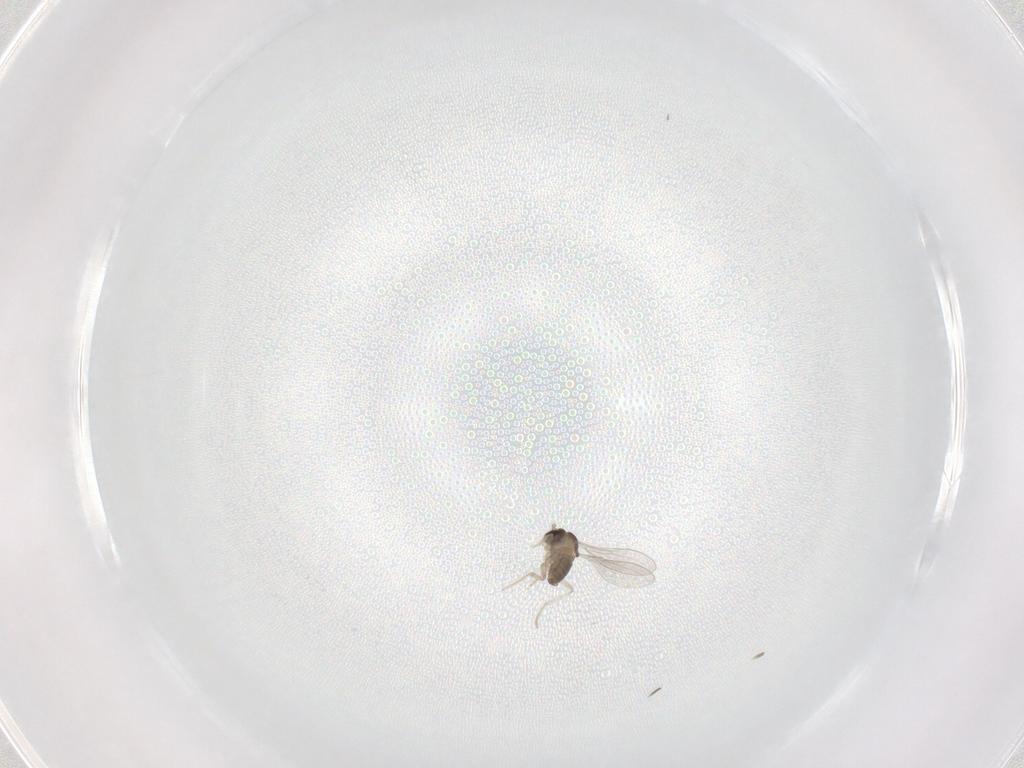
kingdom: Animalia
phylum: Arthropoda
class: Insecta
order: Diptera
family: Cecidomyiidae
